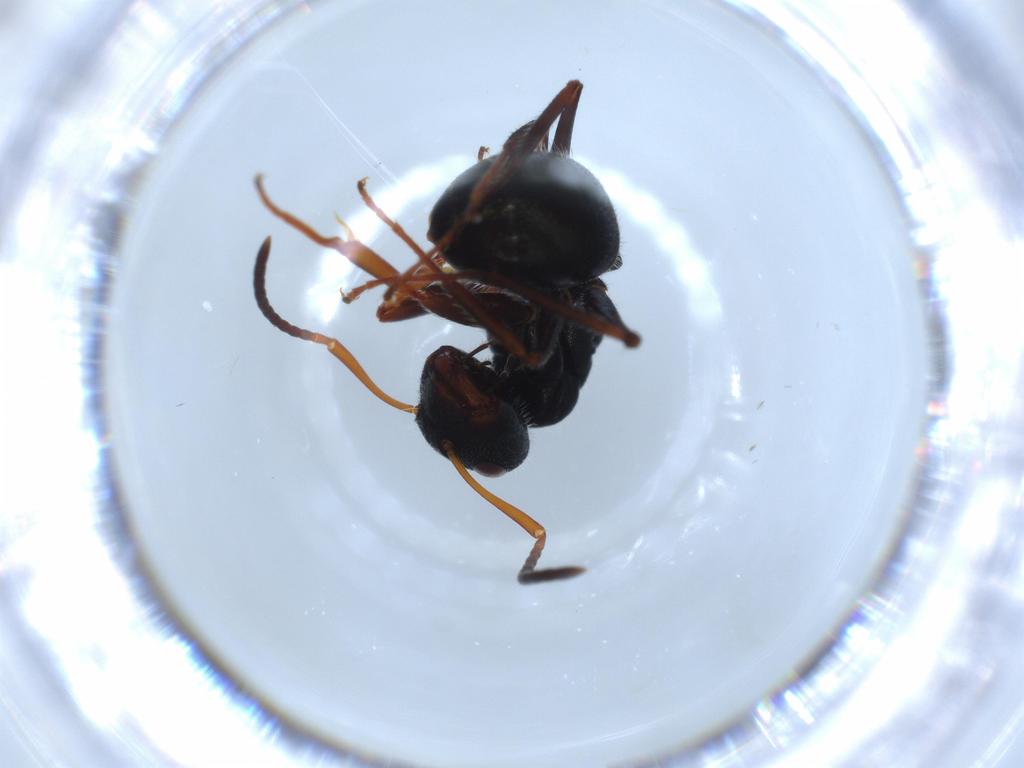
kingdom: Animalia
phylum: Arthropoda
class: Insecta
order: Hymenoptera
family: Formicidae
